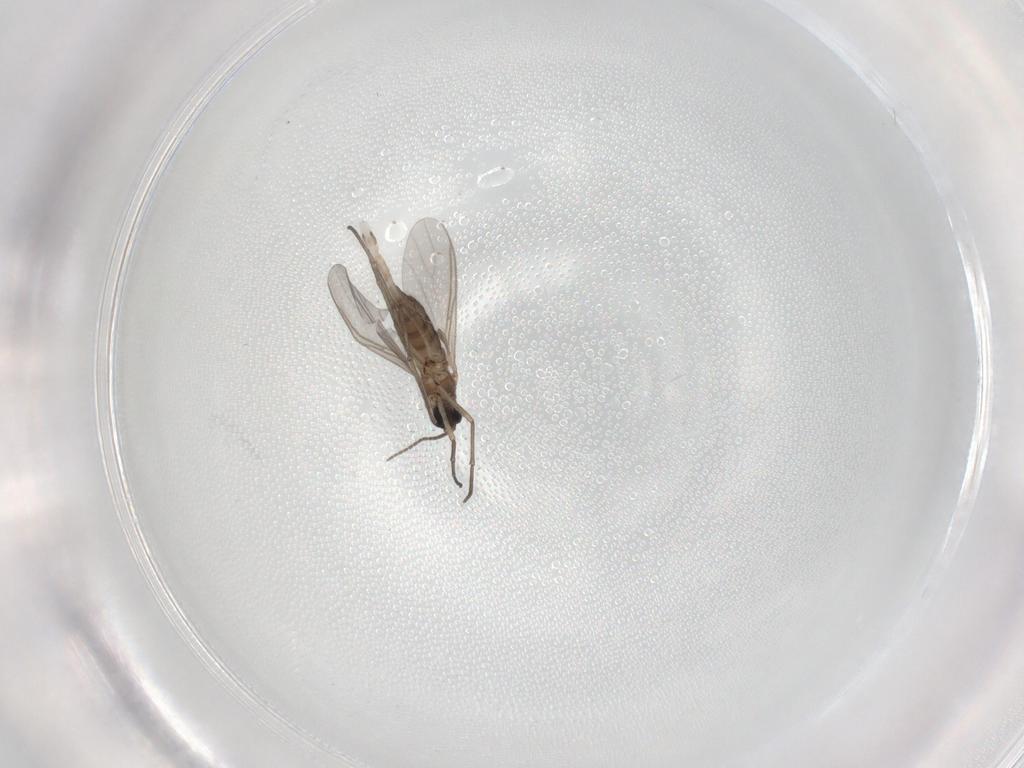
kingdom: Animalia
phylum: Arthropoda
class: Insecta
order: Diptera
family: Sciaridae
